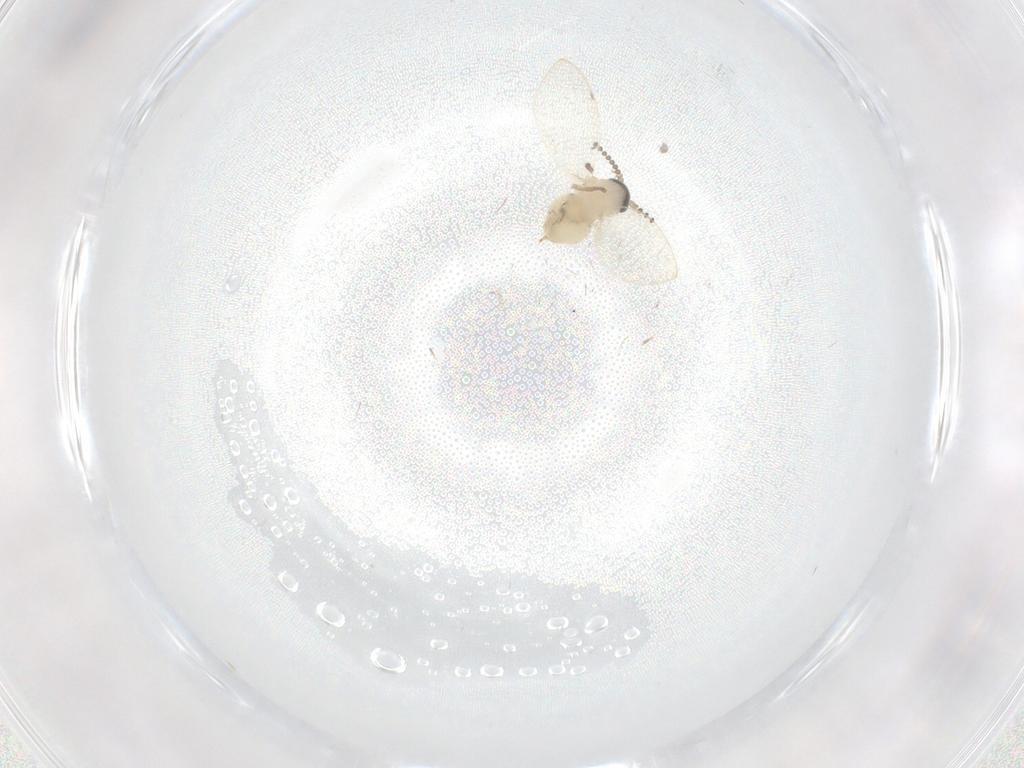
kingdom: Animalia
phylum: Arthropoda
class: Insecta
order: Diptera
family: Psychodidae
